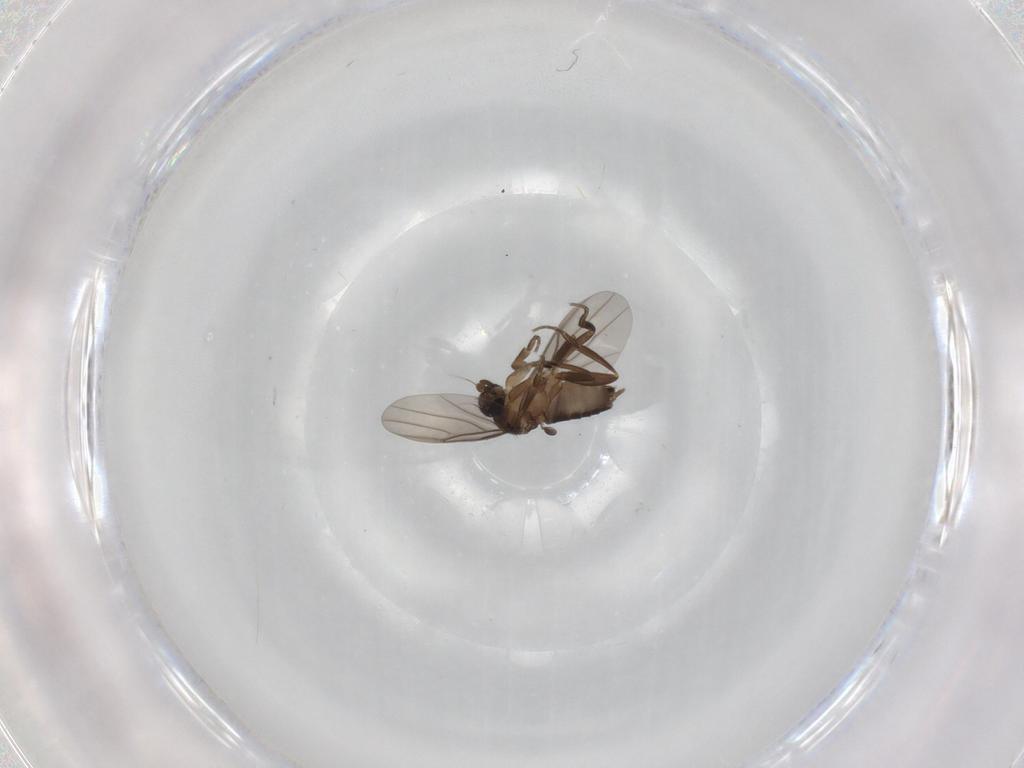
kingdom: Animalia
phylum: Arthropoda
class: Insecta
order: Diptera
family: Phoridae
